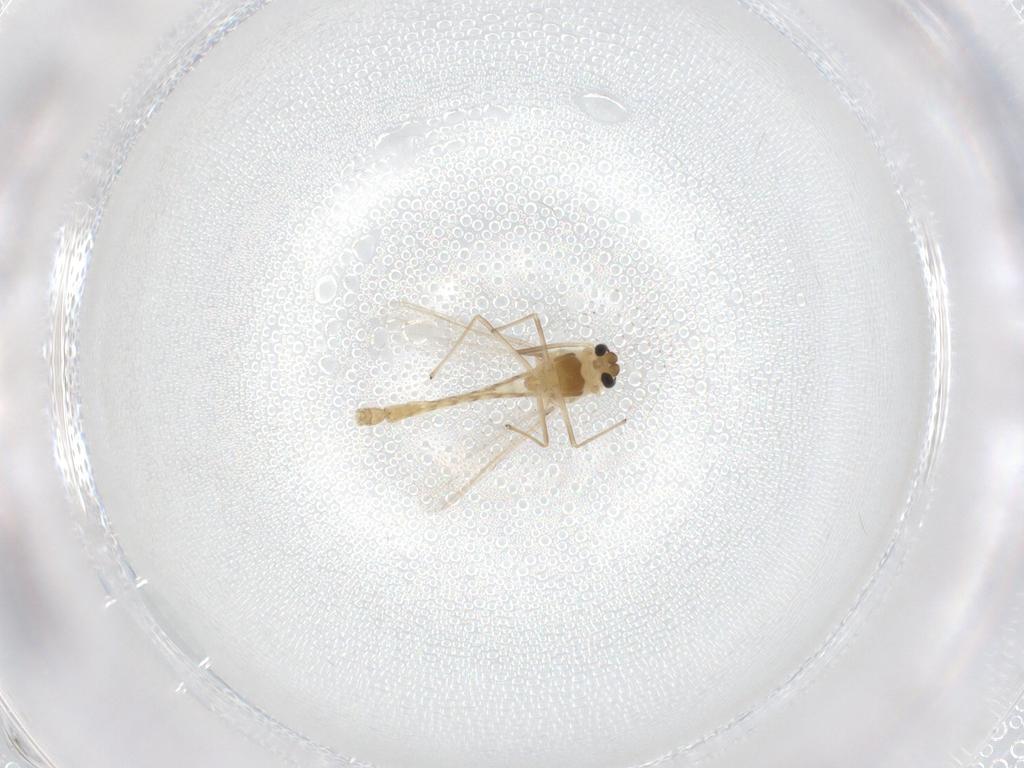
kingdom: Animalia
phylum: Arthropoda
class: Insecta
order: Diptera
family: Chironomidae
